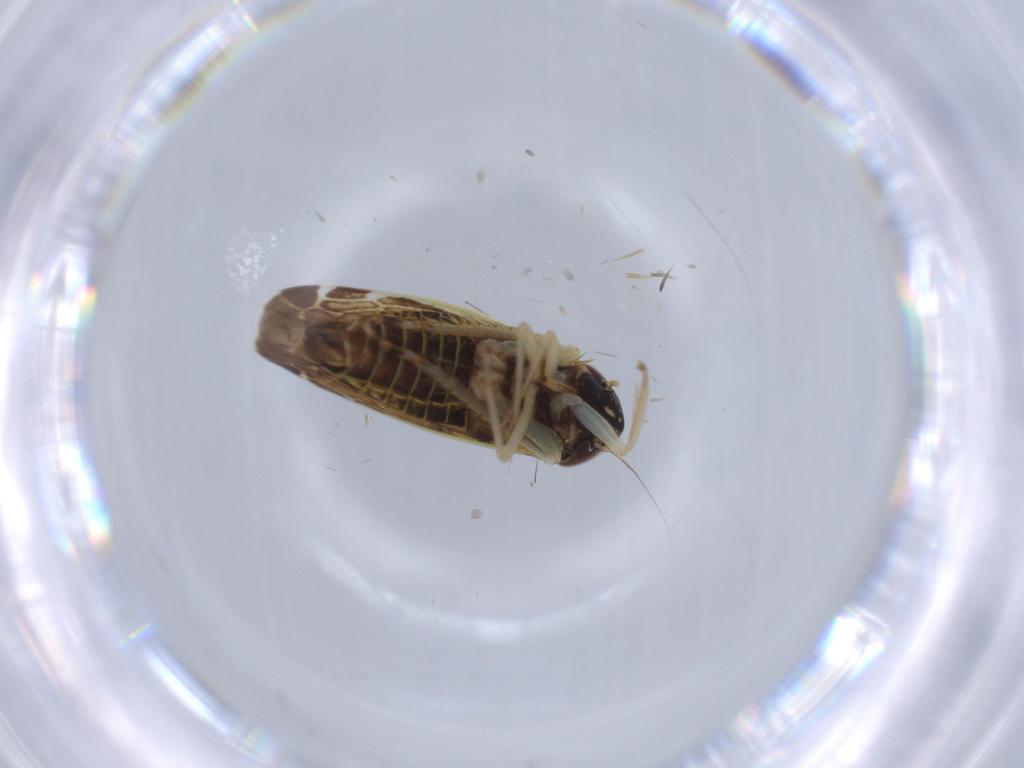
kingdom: Animalia
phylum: Arthropoda
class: Insecta
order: Hemiptera
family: Cicadellidae
